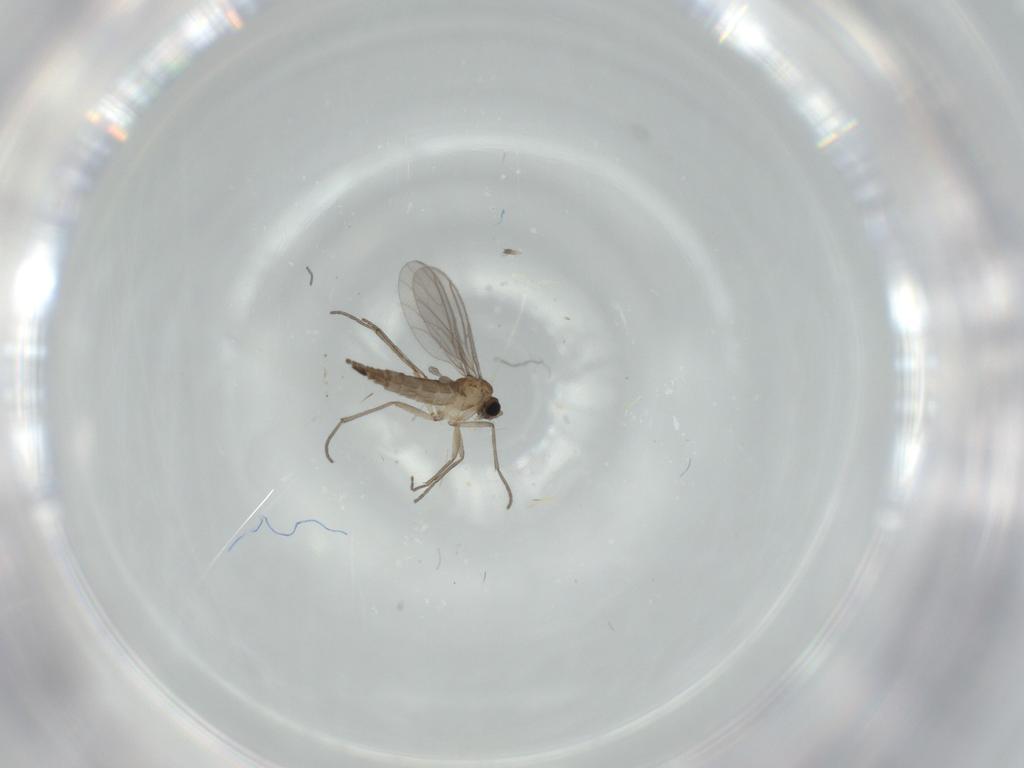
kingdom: Animalia
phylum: Arthropoda
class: Insecta
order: Diptera
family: Sciaridae
